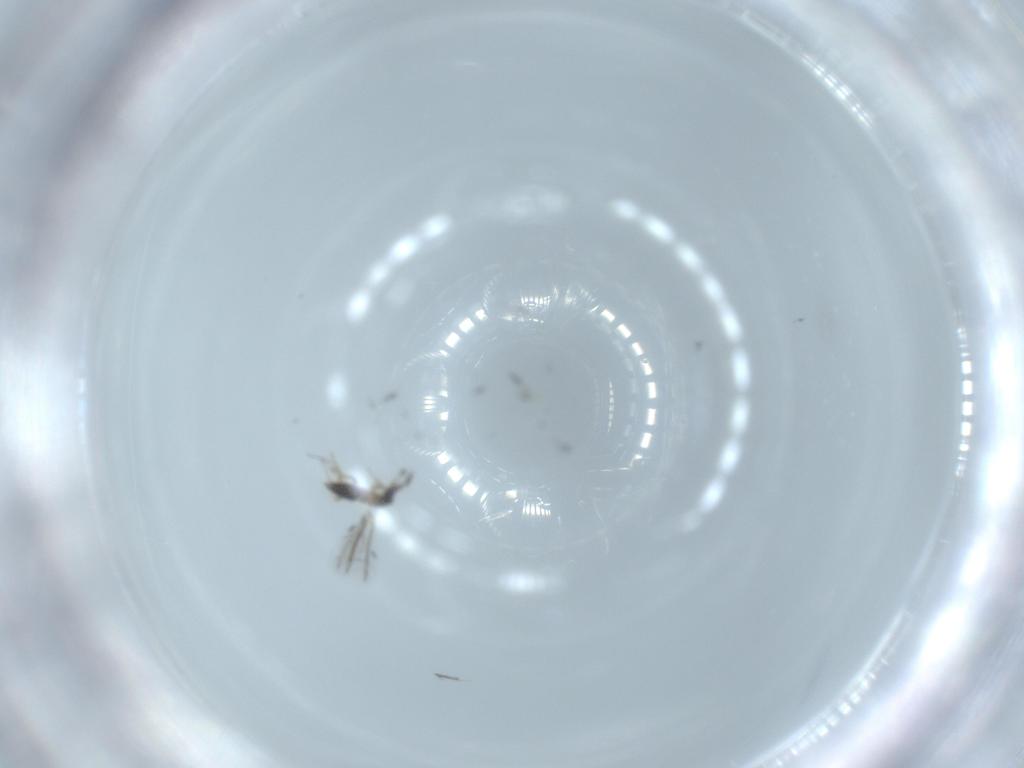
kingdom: Animalia
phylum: Arthropoda
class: Insecta
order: Hymenoptera
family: Mymaridae
